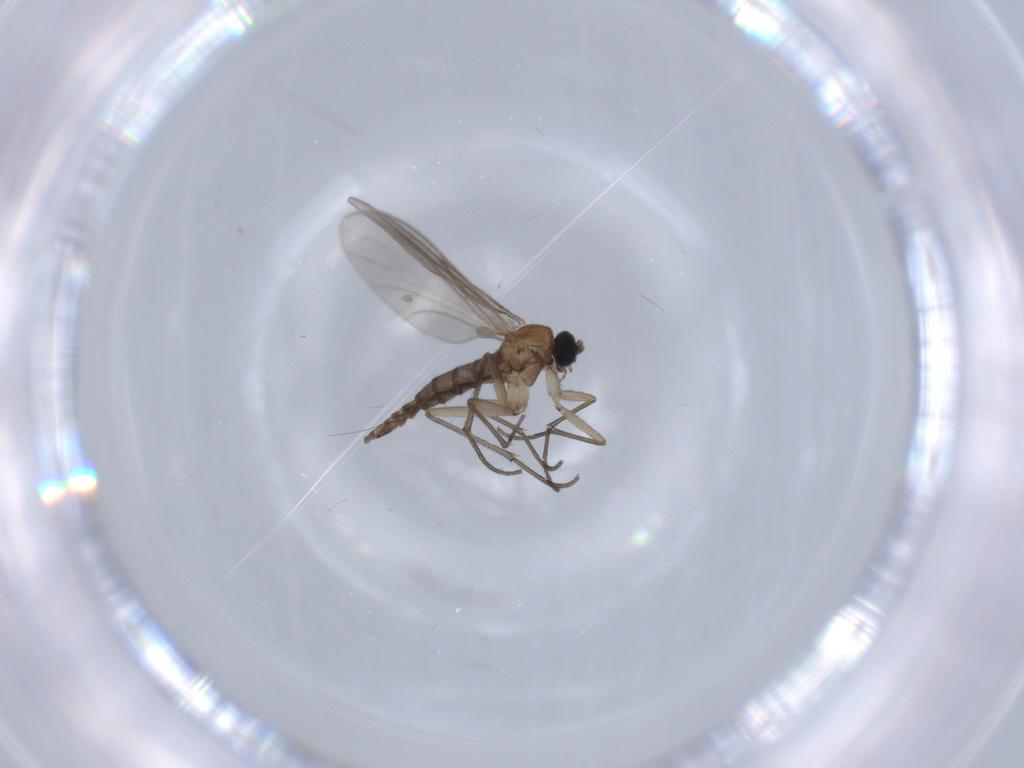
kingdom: Animalia
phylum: Arthropoda
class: Insecta
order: Diptera
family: Sciaridae
